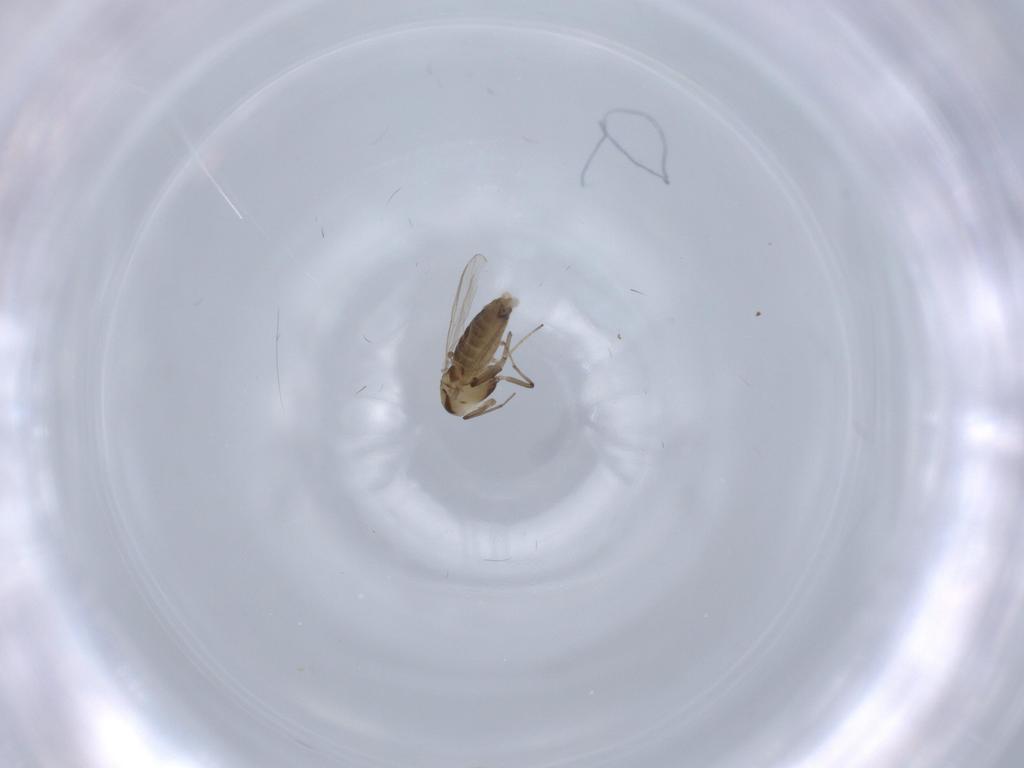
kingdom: Animalia
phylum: Arthropoda
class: Insecta
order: Diptera
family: Chironomidae
